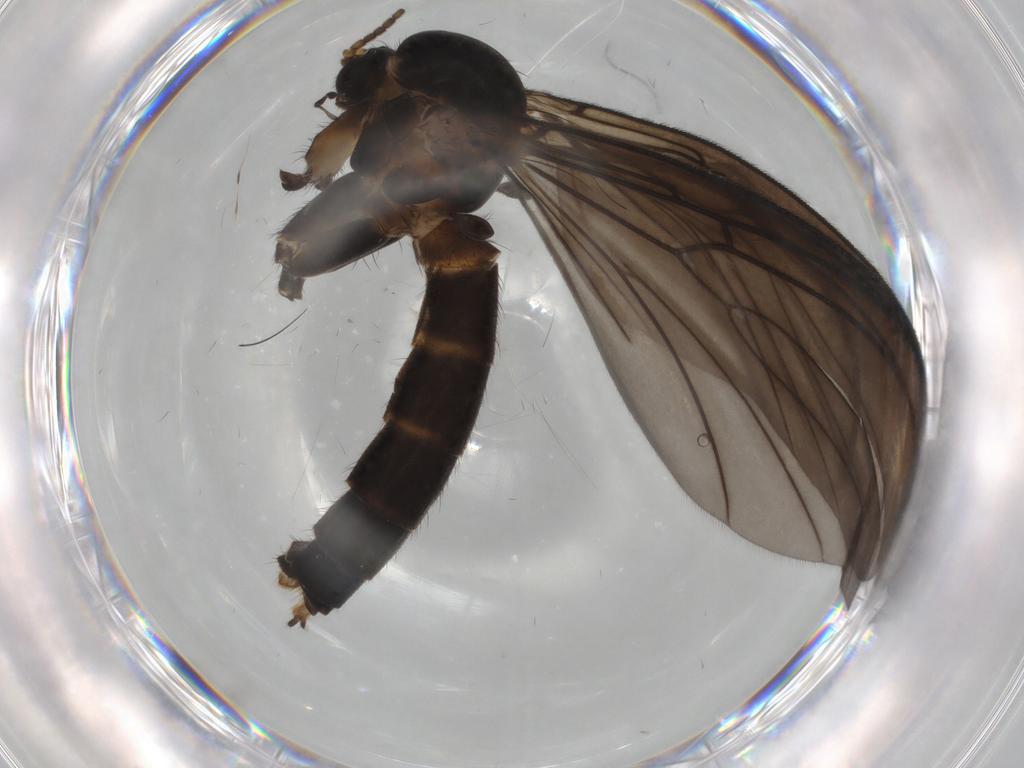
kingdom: Animalia
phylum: Arthropoda
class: Insecta
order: Diptera
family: Mycetophilidae
